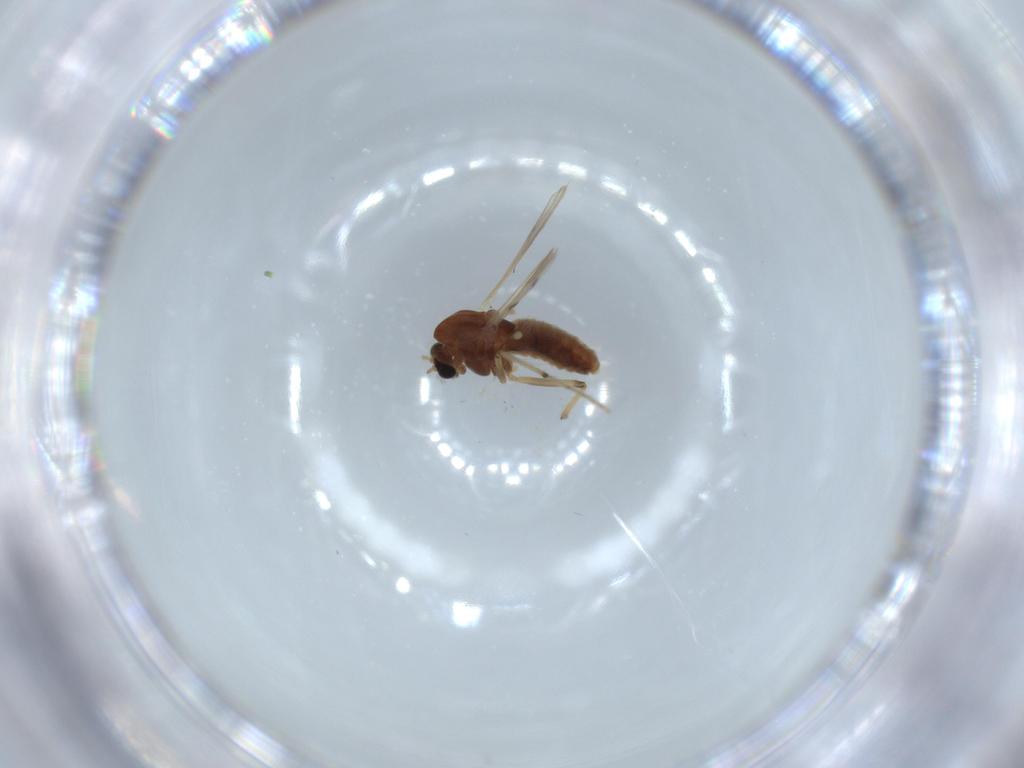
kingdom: Animalia
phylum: Arthropoda
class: Insecta
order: Diptera
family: Chironomidae
